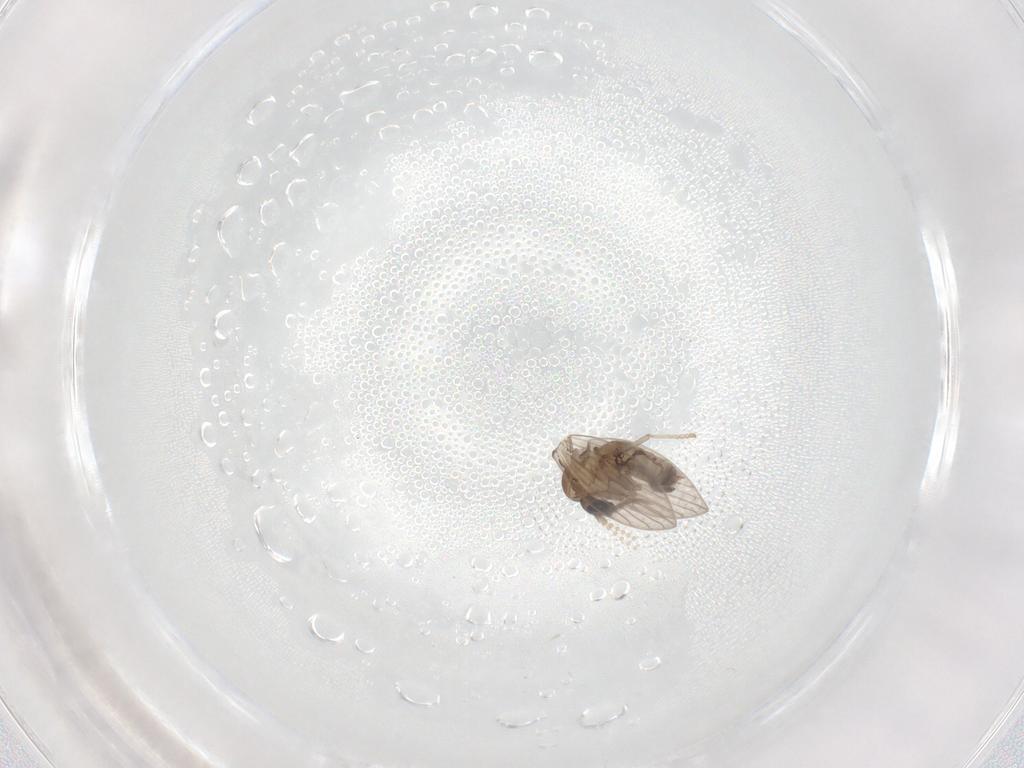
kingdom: Animalia
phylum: Arthropoda
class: Insecta
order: Diptera
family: Psychodidae
